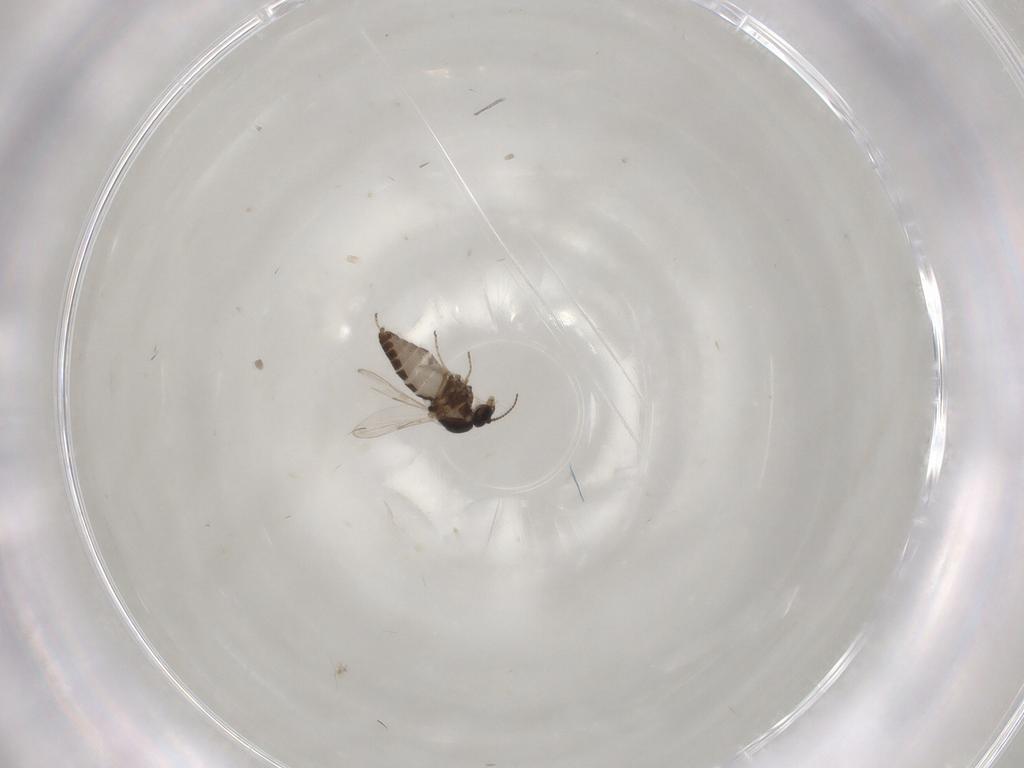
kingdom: Animalia
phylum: Arthropoda
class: Insecta
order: Diptera
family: Ceratopogonidae
